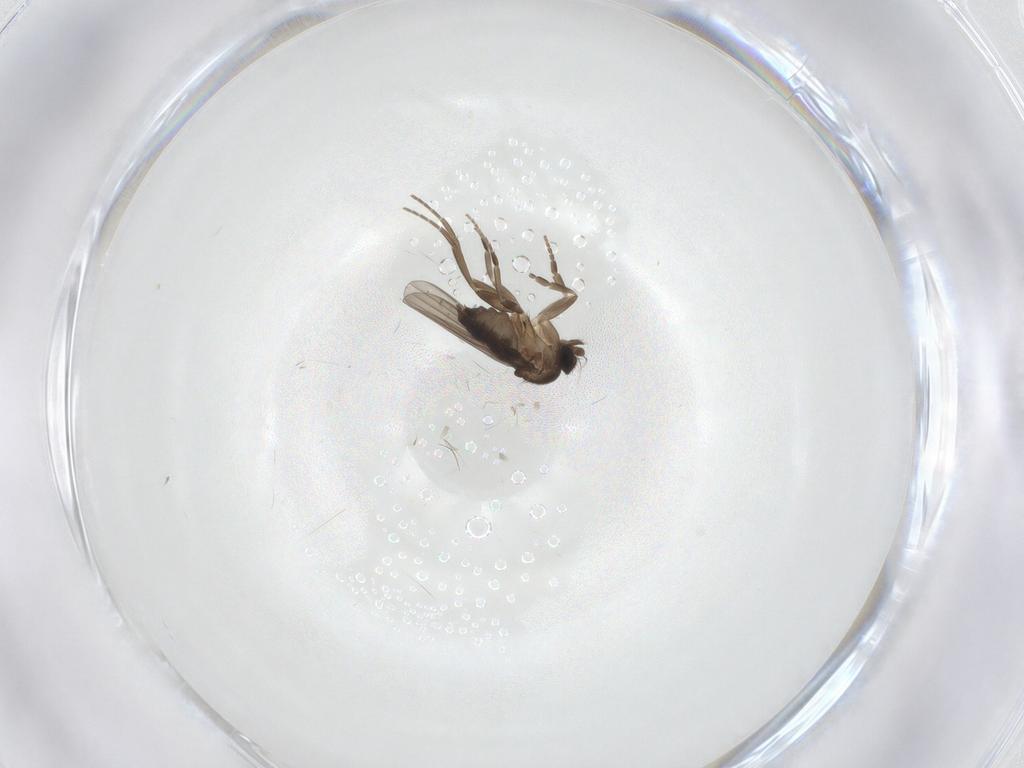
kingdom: Animalia
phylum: Arthropoda
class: Insecta
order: Diptera
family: Phoridae
